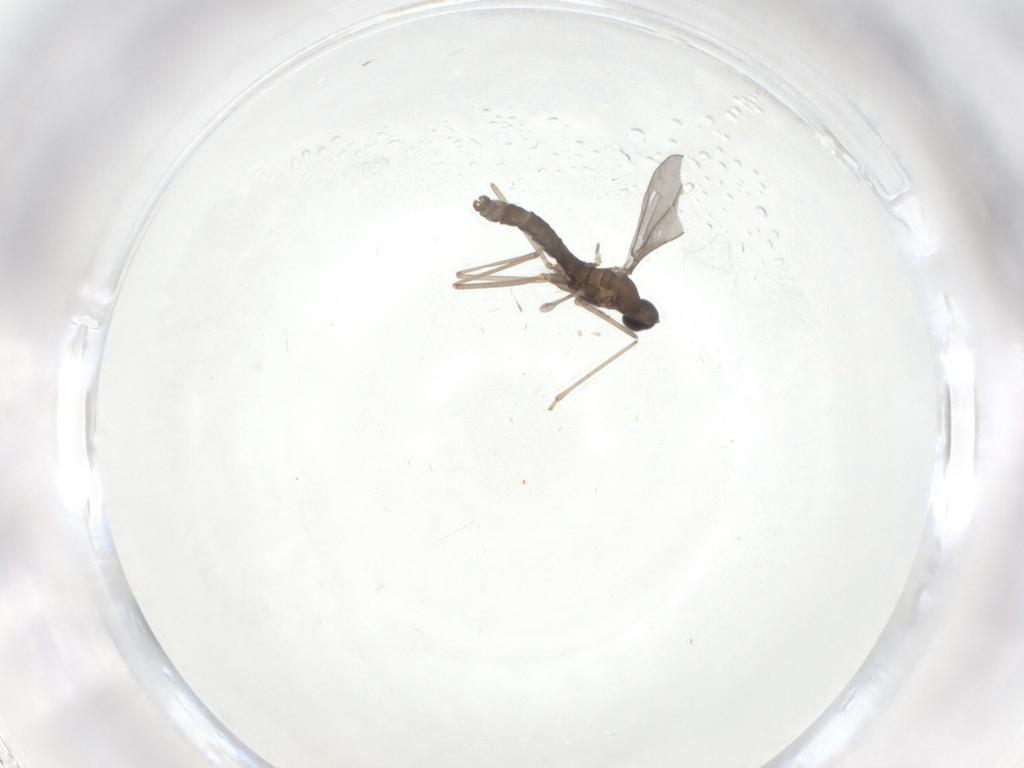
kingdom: Animalia
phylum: Arthropoda
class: Insecta
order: Diptera
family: Cecidomyiidae
